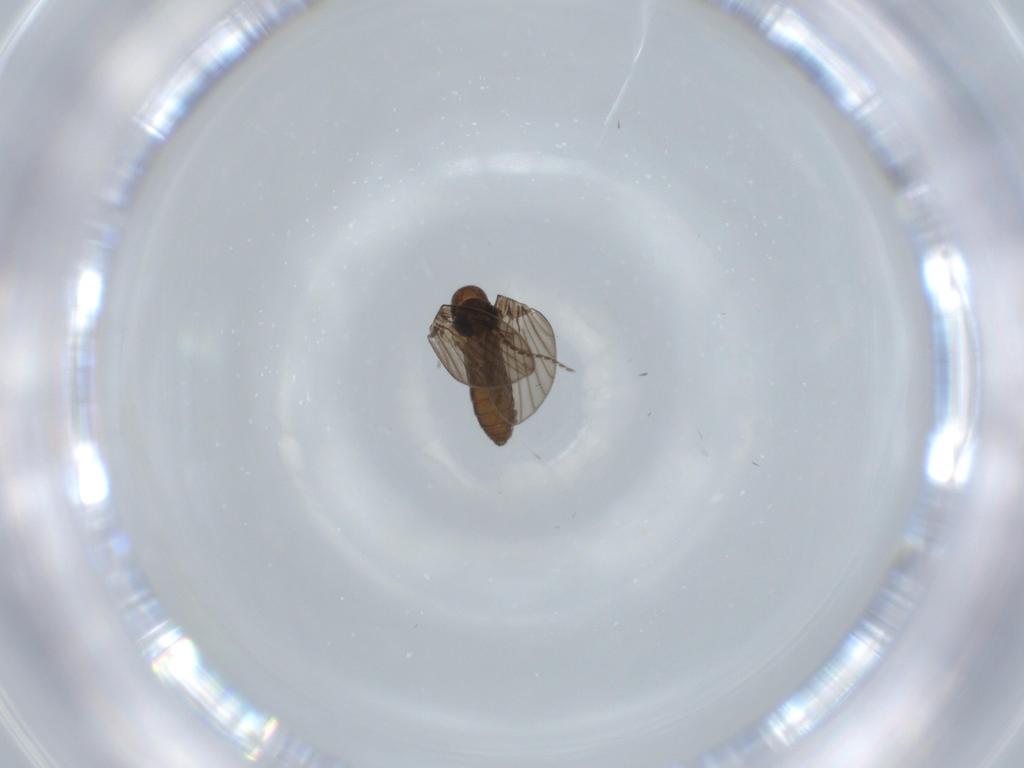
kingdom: Animalia
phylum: Arthropoda
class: Insecta
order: Diptera
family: Psychodidae
